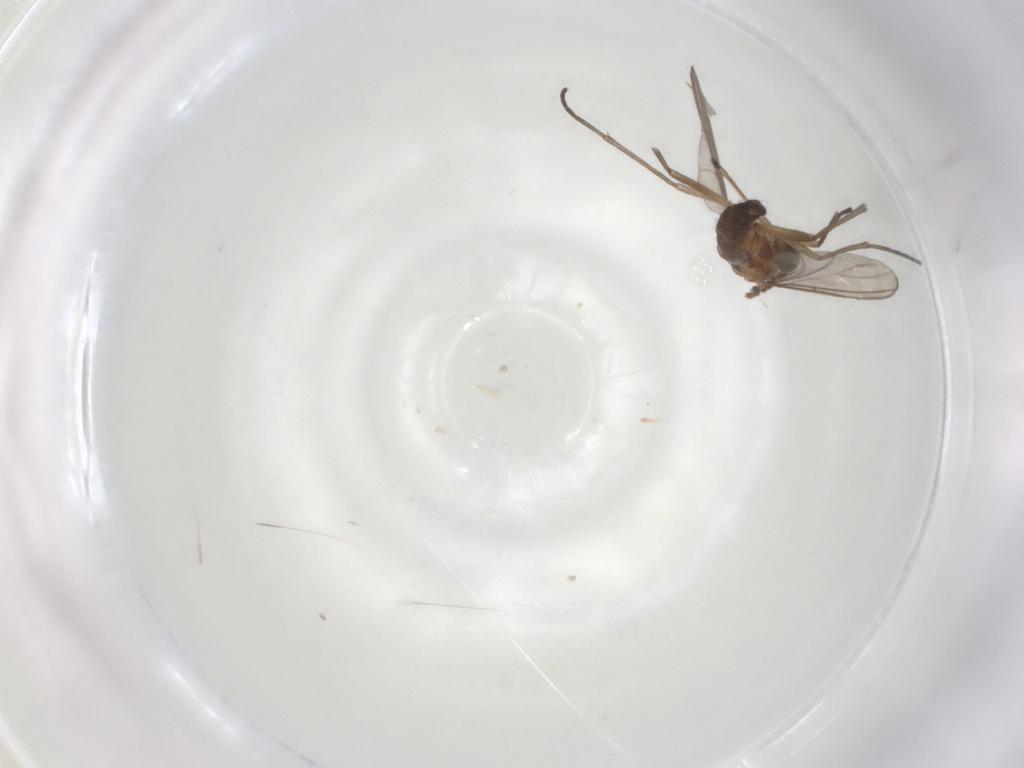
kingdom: Animalia
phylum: Arthropoda
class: Insecta
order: Diptera
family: Sciaridae
